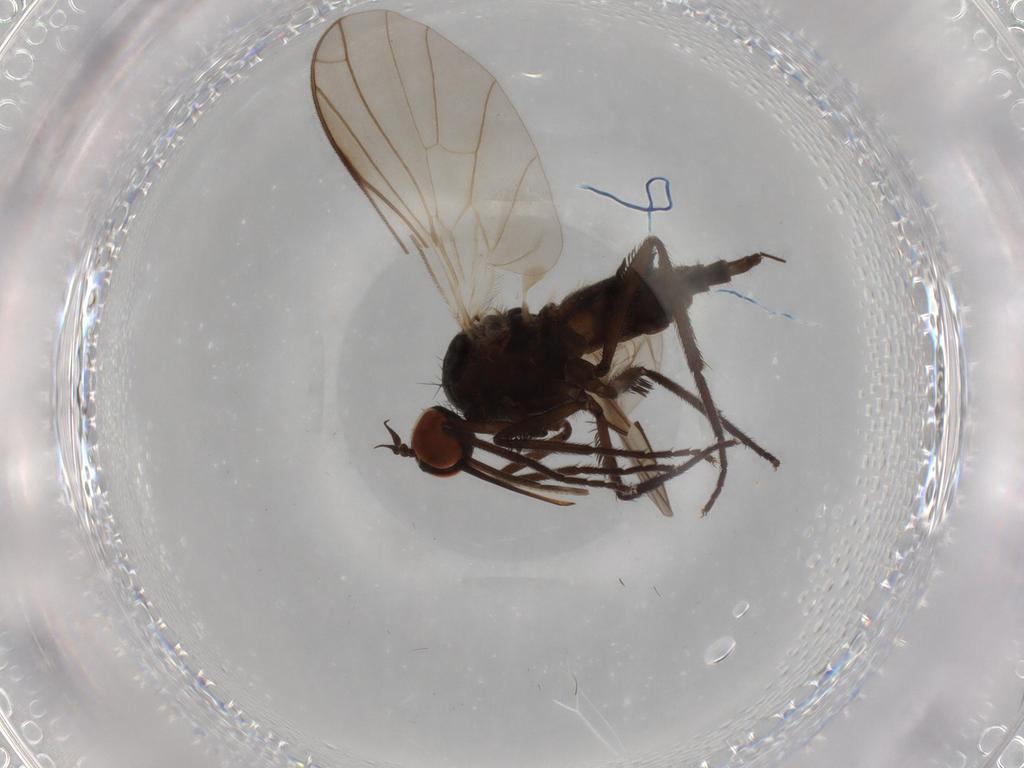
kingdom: Animalia
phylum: Arthropoda
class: Insecta
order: Diptera
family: Empididae
